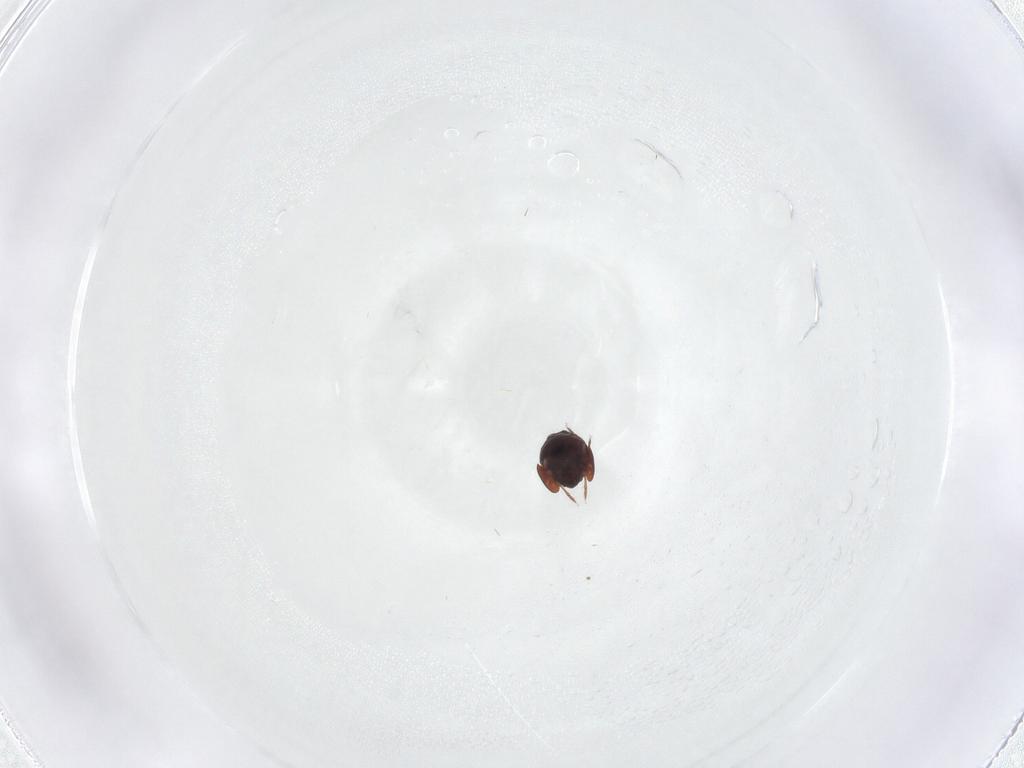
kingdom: Animalia
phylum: Arthropoda
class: Arachnida
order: Sarcoptiformes
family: Galumnidae
